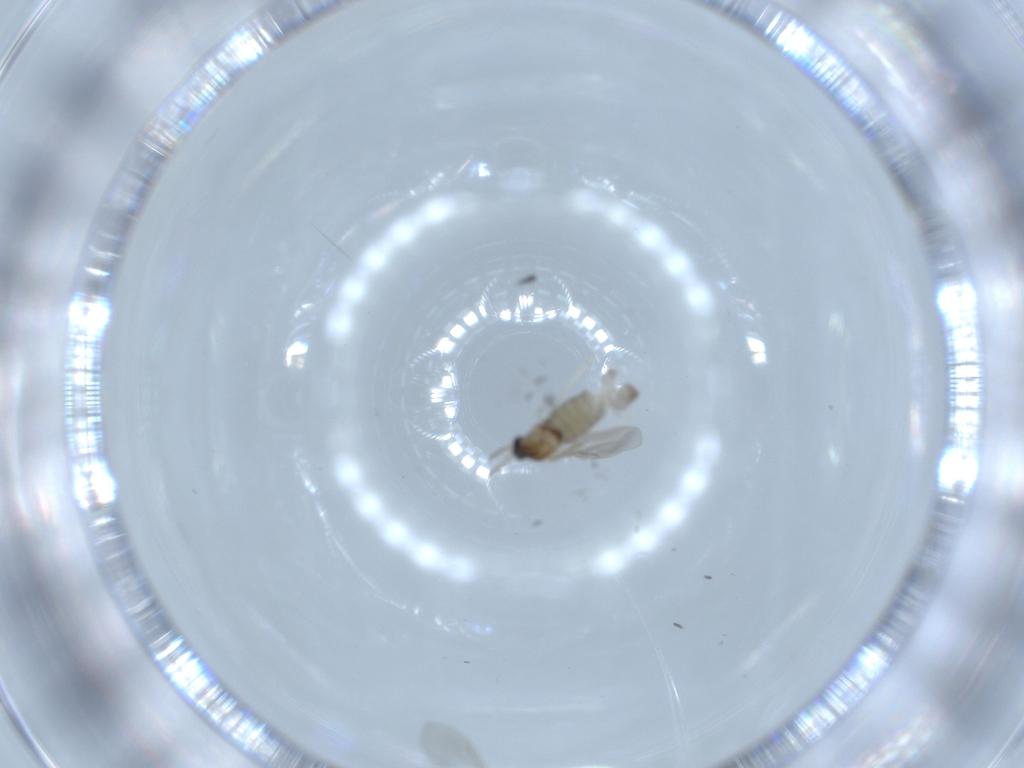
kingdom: Animalia
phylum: Arthropoda
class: Insecta
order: Diptera
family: Cecidomyiidae
